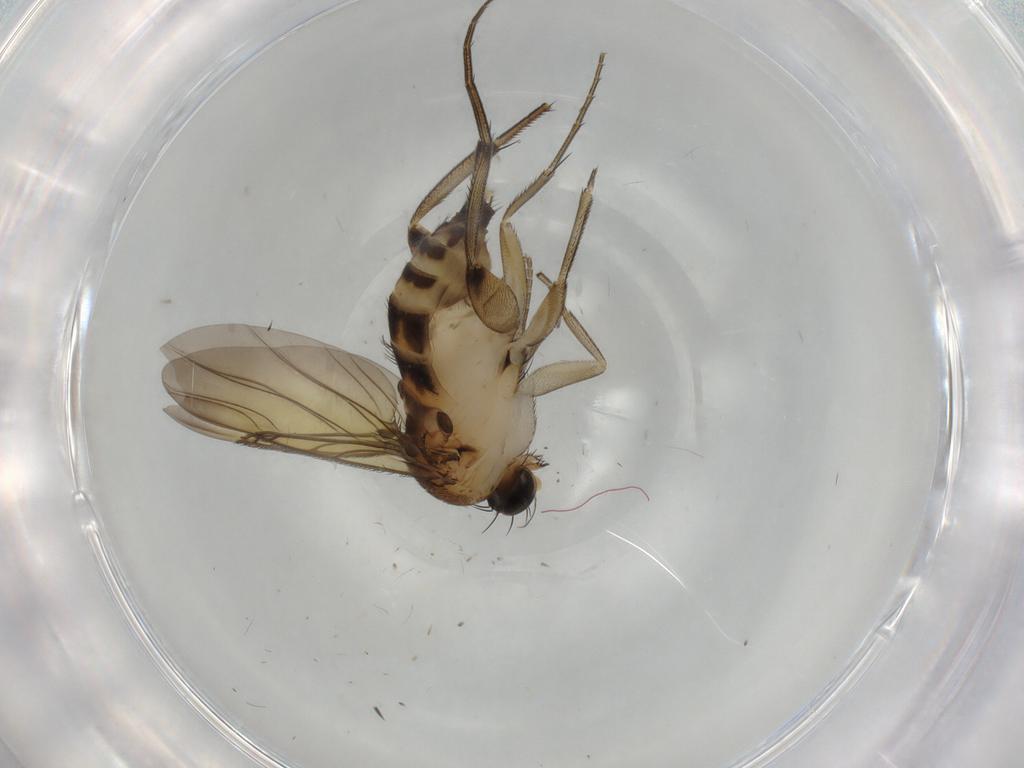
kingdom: Animalia
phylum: Arthropoda
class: Insecta
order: Diptera
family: Phoridae
